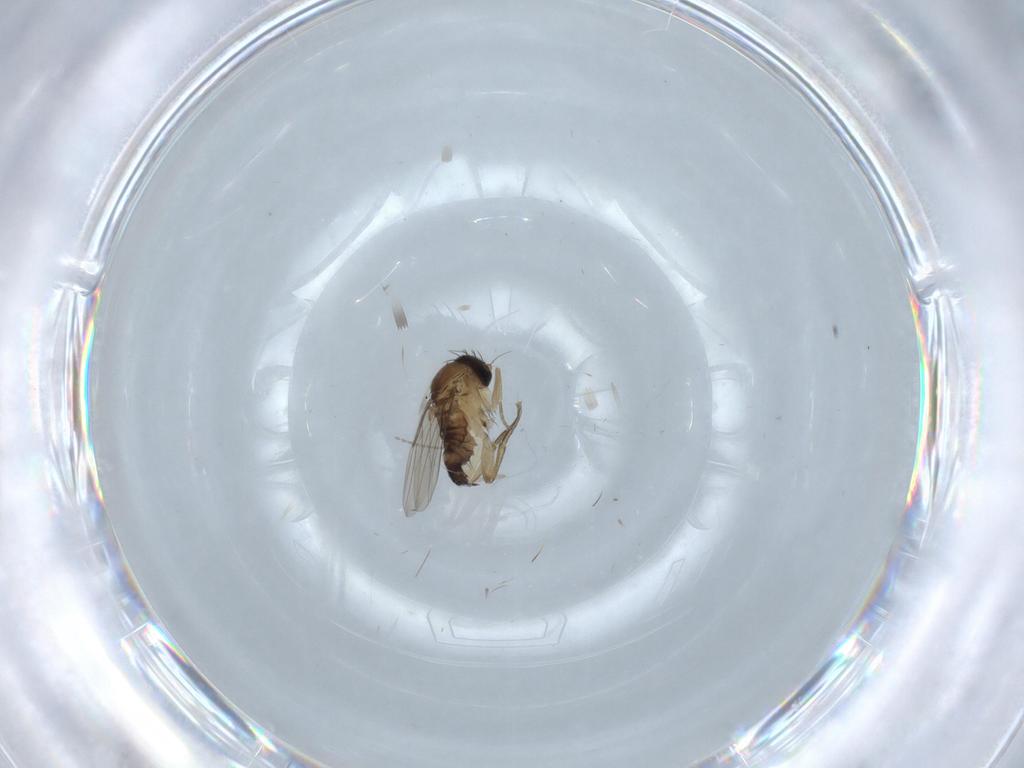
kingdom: Animalia
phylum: Arthropoda
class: Insecta
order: Diptera
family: Phoridae
